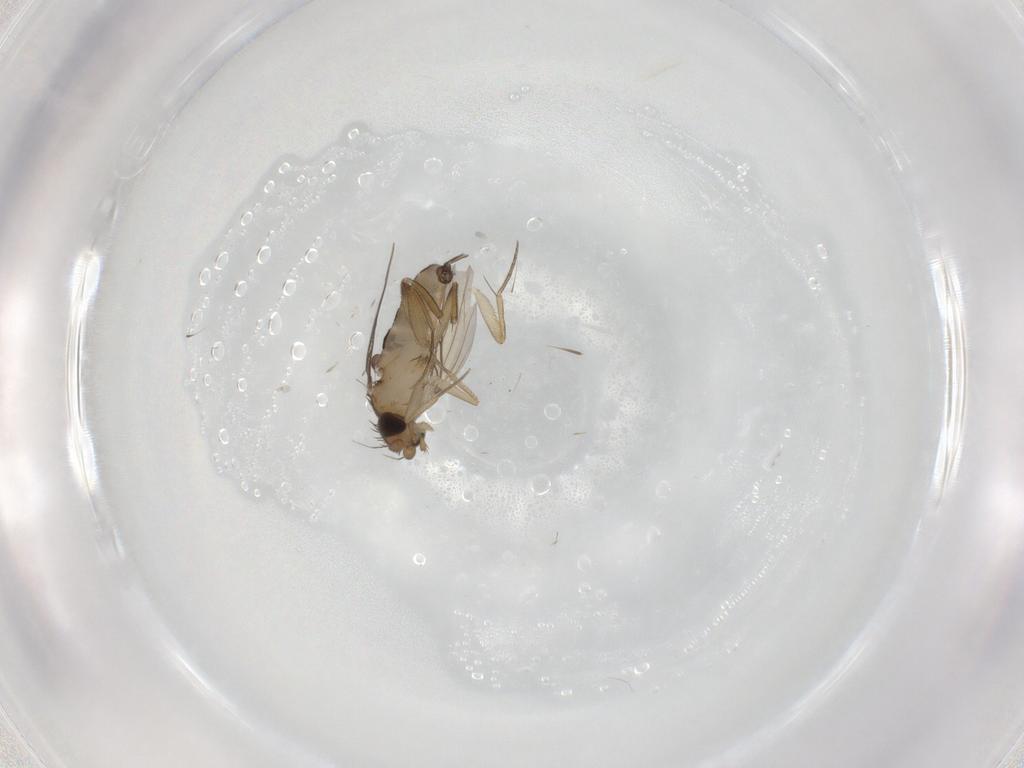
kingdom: Animalia
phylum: Arthropoda
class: Insecta
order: Diptera
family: Phoridae
